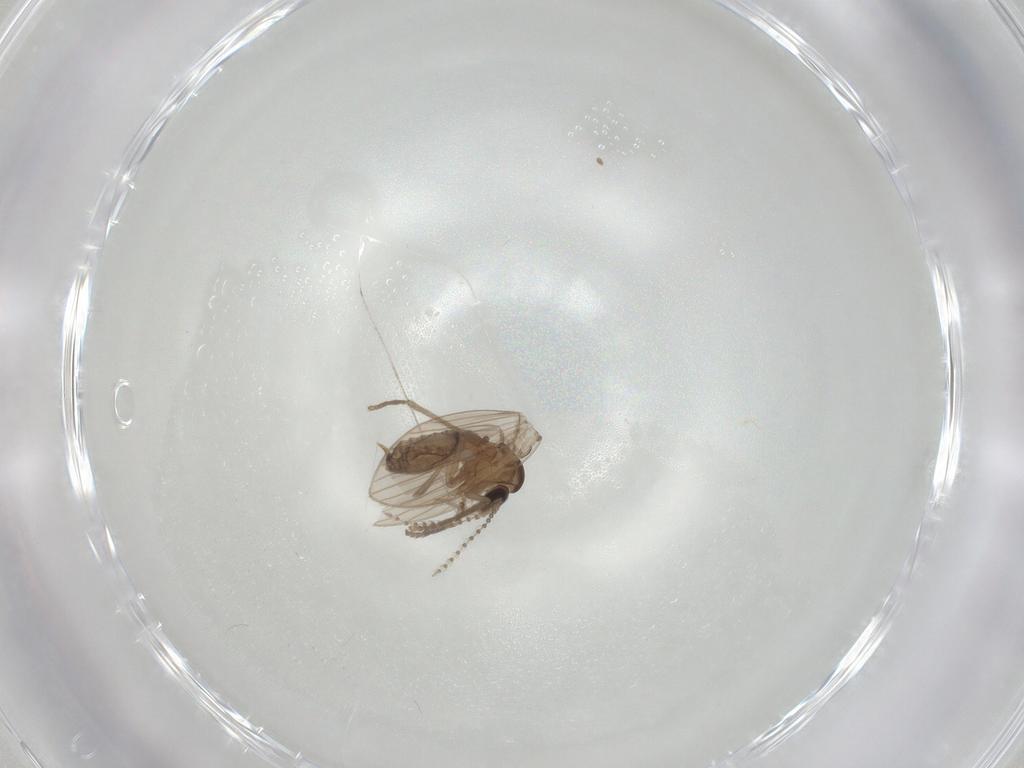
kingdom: Animalia
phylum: Arthropoda
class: Insecta
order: Diptera
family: Psychodidae
